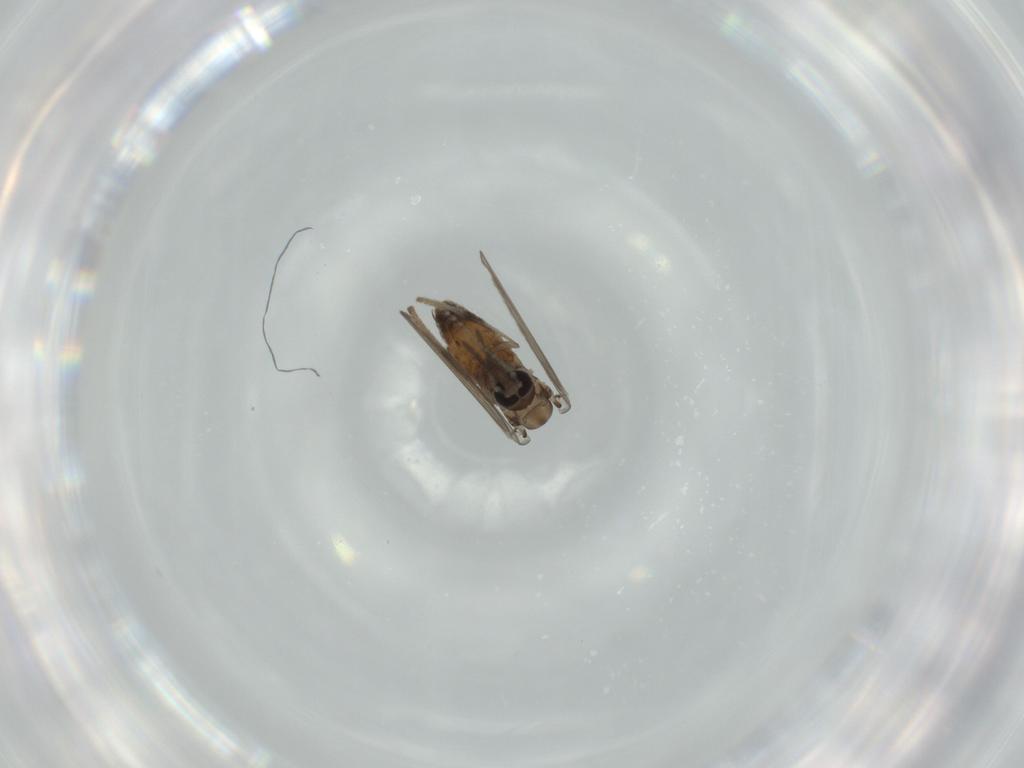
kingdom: Animalia
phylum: Arthropoda
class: Insecta
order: Diptera
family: Psychodidae
